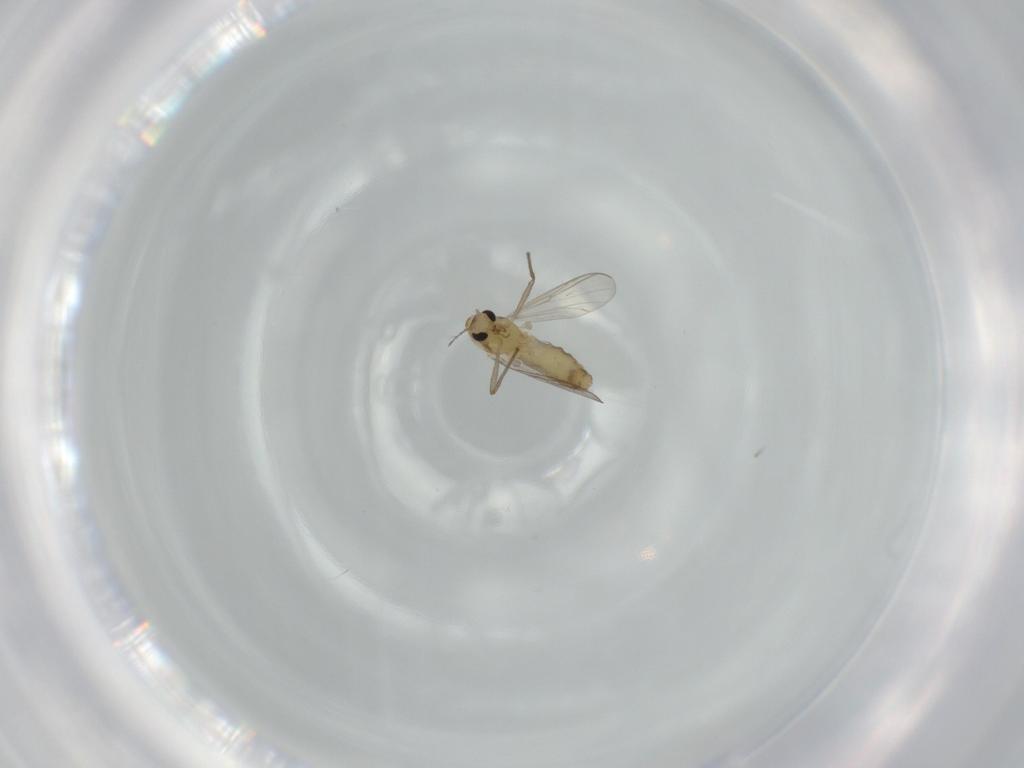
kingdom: Animalia
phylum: Arthropoda
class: Insecta
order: Diptera
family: Chironomidae
